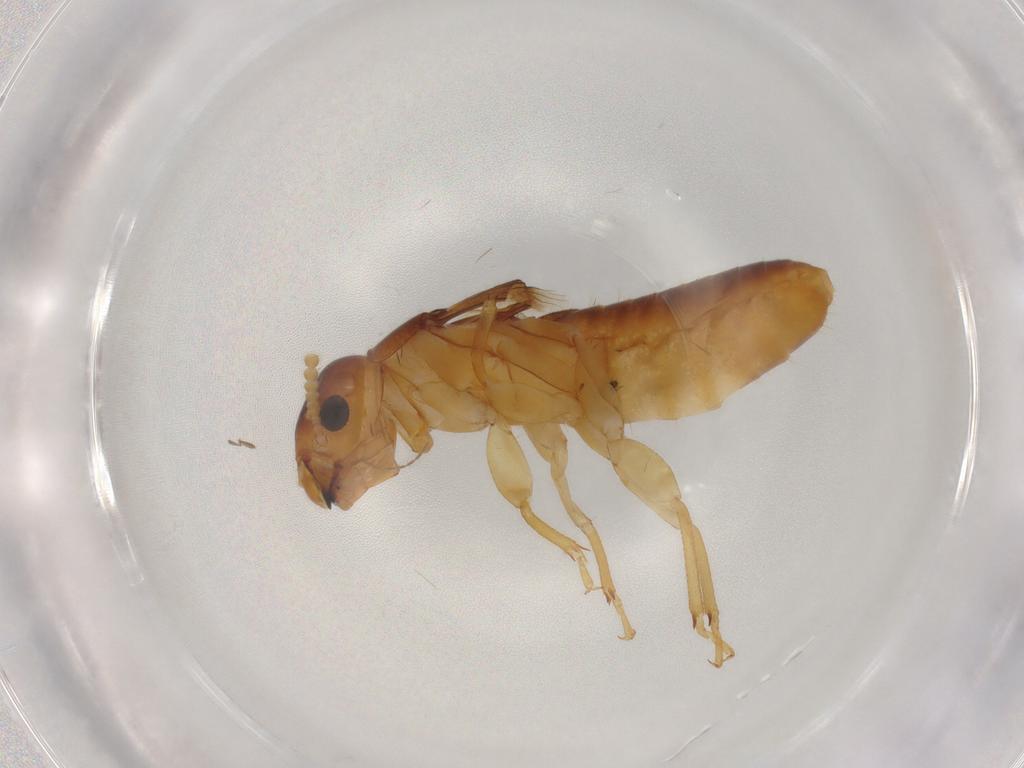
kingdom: Animalia
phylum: Arthropoda
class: Insecta
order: Blattodea
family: Kalotermitidae
